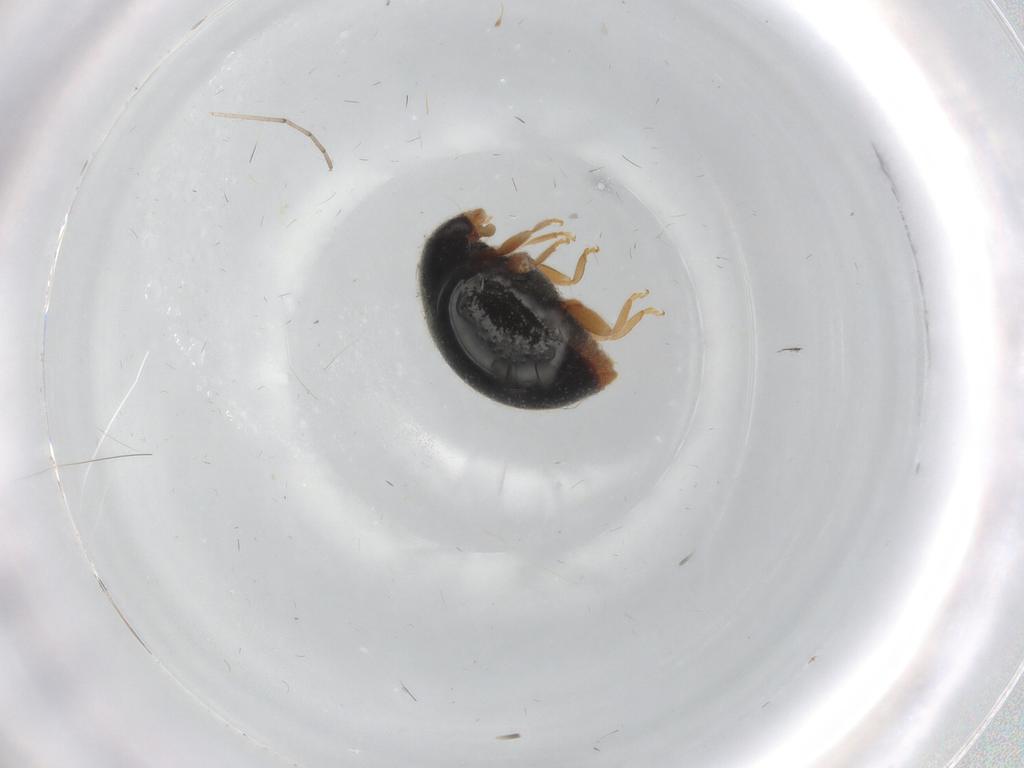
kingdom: Animalia
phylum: Arthropoda
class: Insecta
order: Coleoptera
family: Coccinellidae
